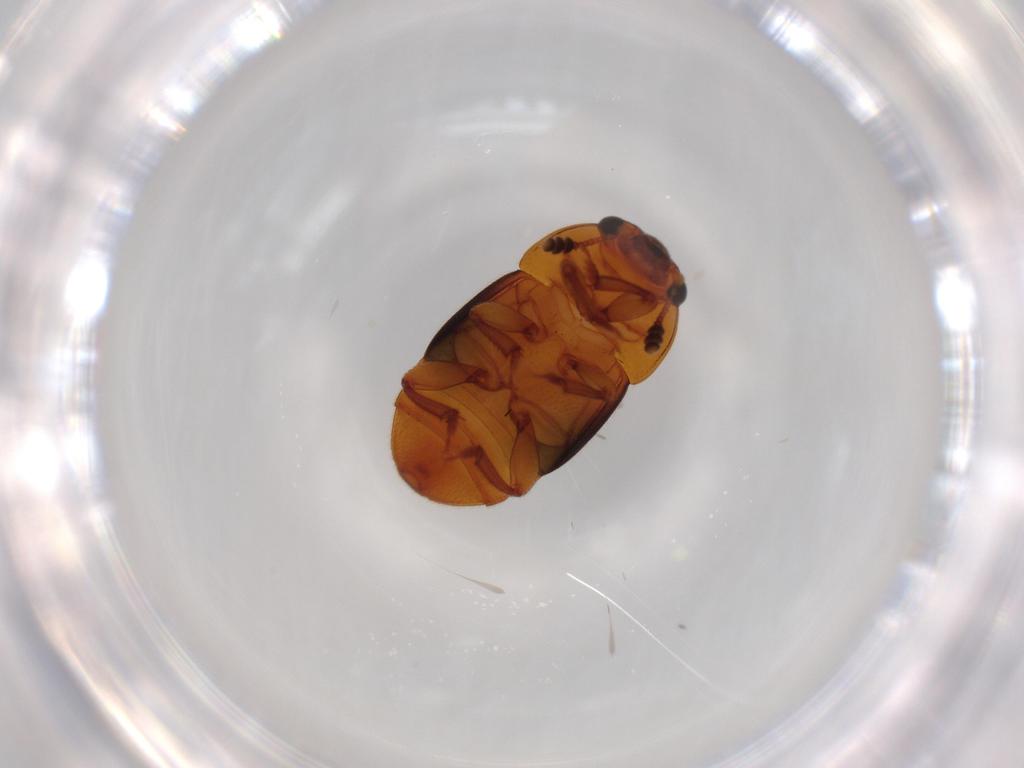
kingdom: Animalia
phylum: Arthropoda
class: Insecta
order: Coleoptera
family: Nitidulidae
